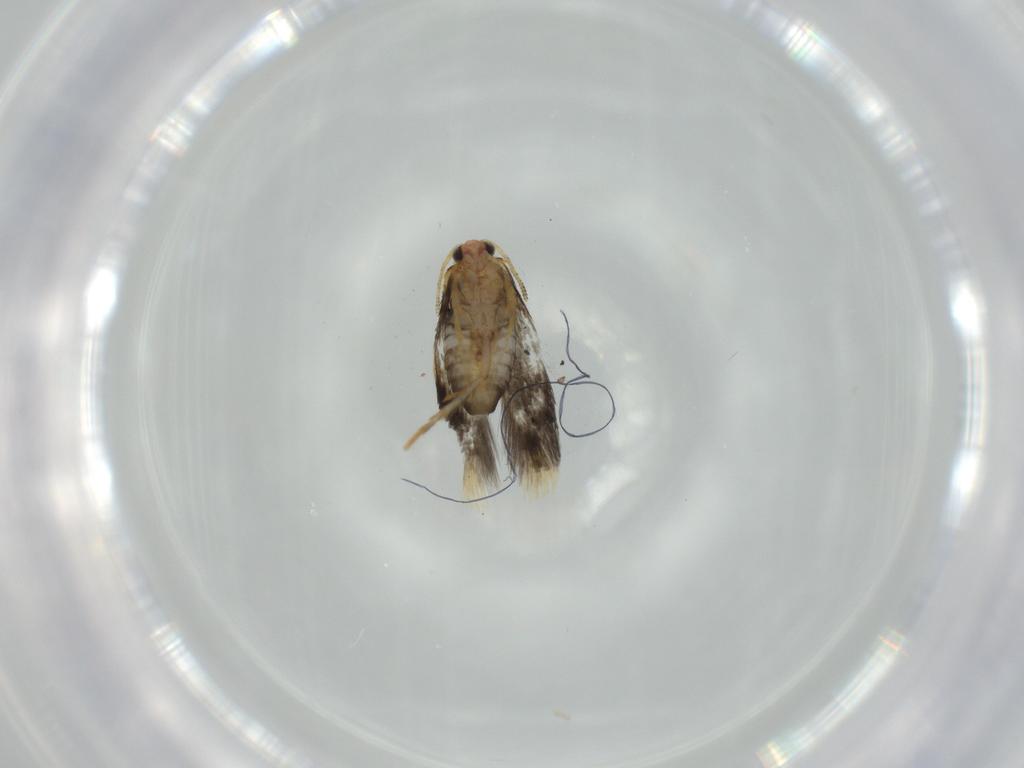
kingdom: Animalia
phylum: Arthropoda
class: Insecta
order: Lepidoptera
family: Nepticulidae
